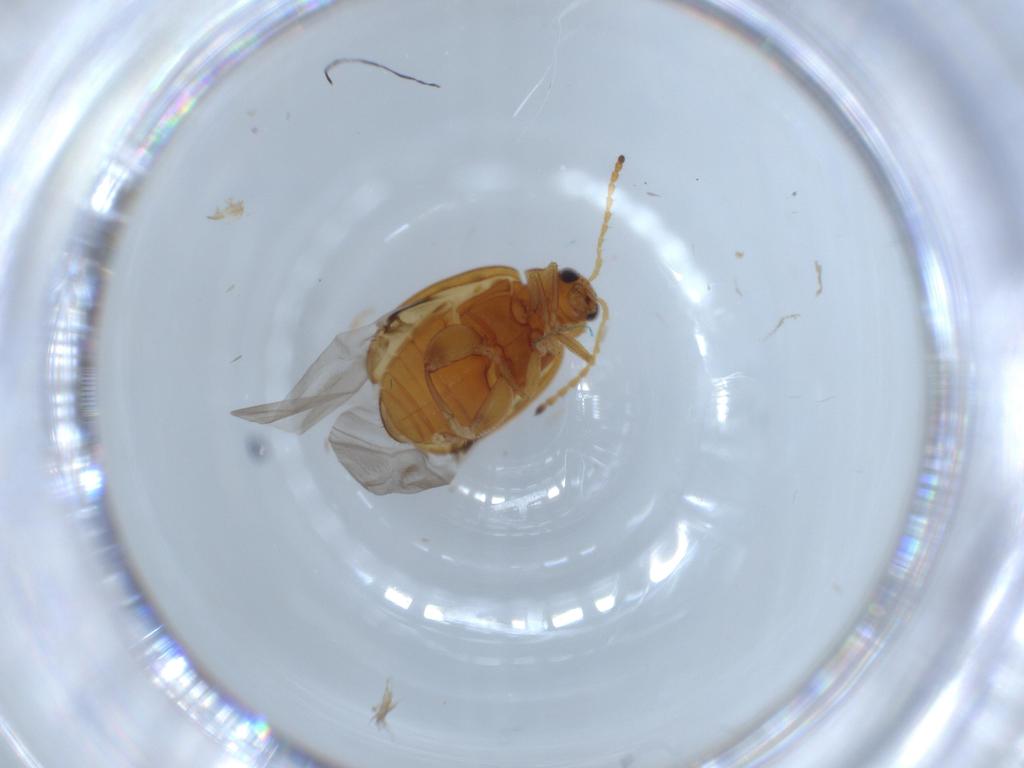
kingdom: Animalia
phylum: Arthropoda
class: Insecta
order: Coleoptera
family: Chrysomelidae
